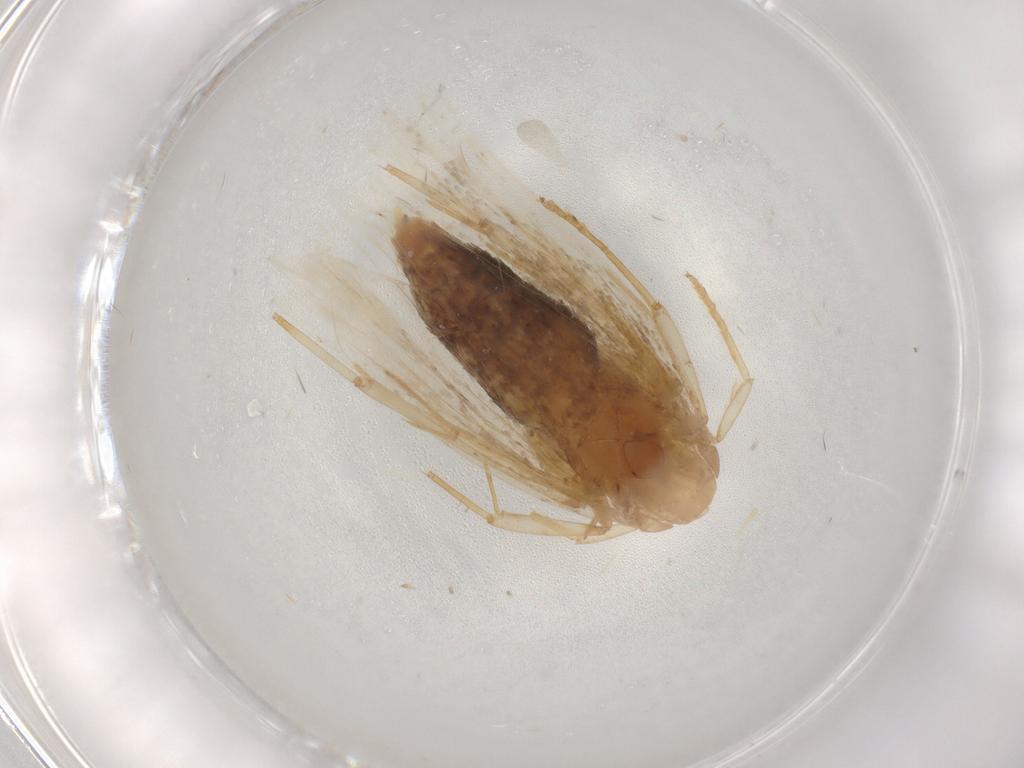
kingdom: Animalia
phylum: Arthropoda
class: Insecta
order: Lepidoptera
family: Lecithoceridae
